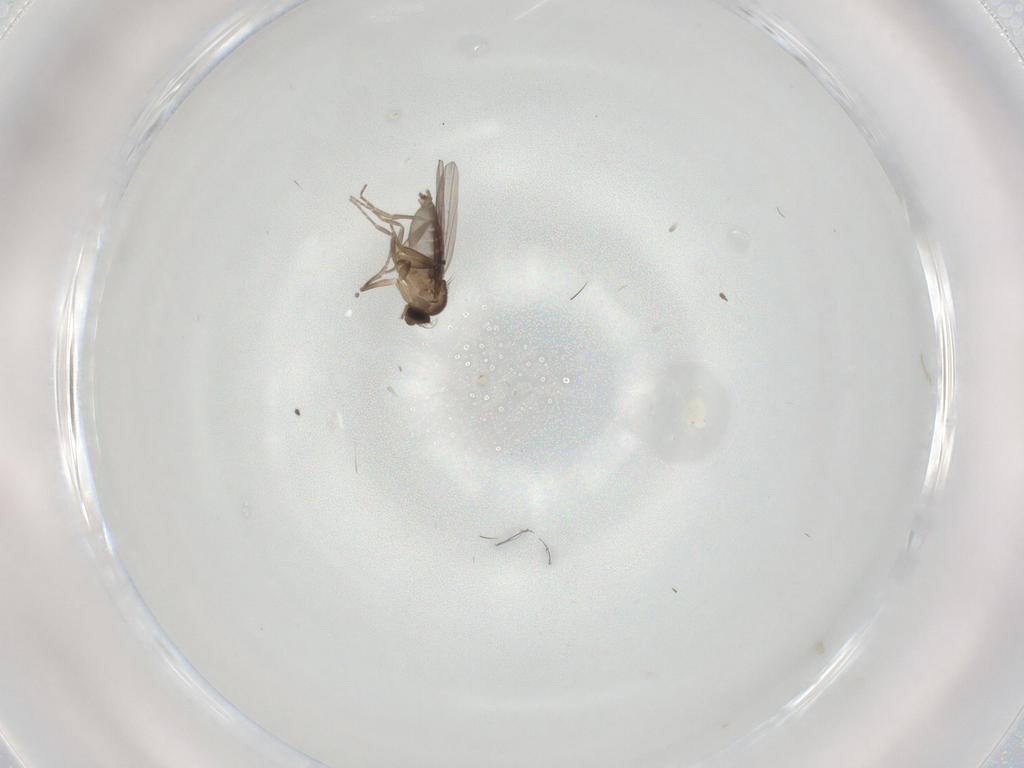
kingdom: Animalia
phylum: Arthropoda
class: Insecta
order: Diptera
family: Cecidomyiidae
